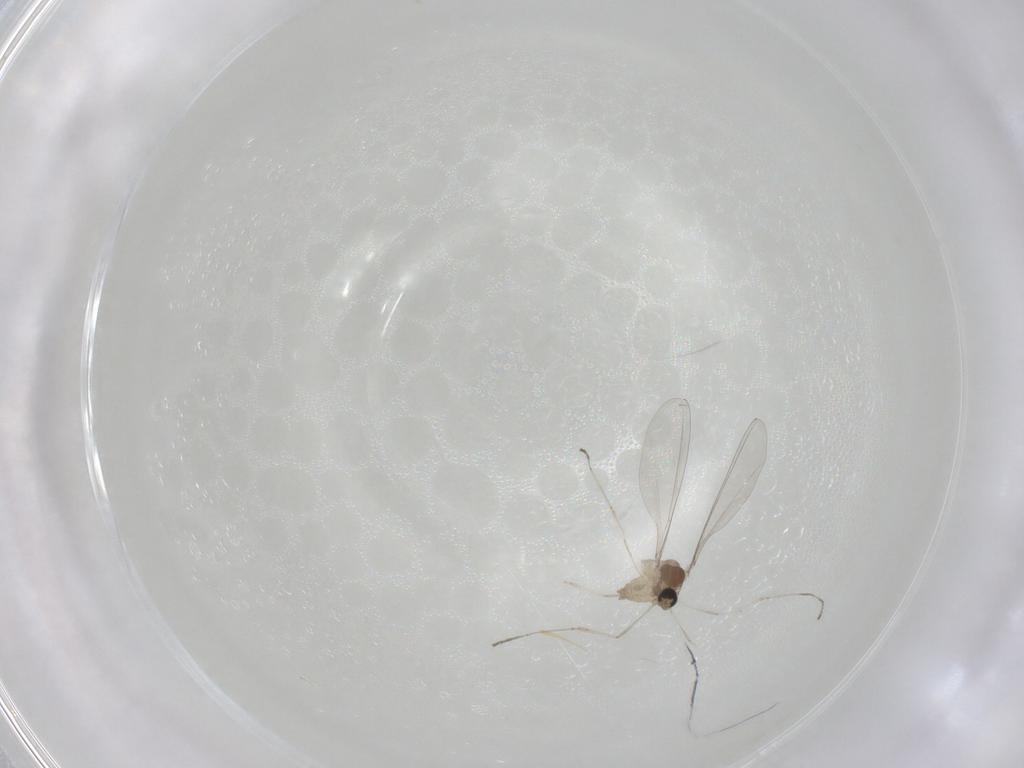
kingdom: Animalia
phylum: Arthropoda
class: Insecta
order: Diptera
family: Cecidomyiidae
